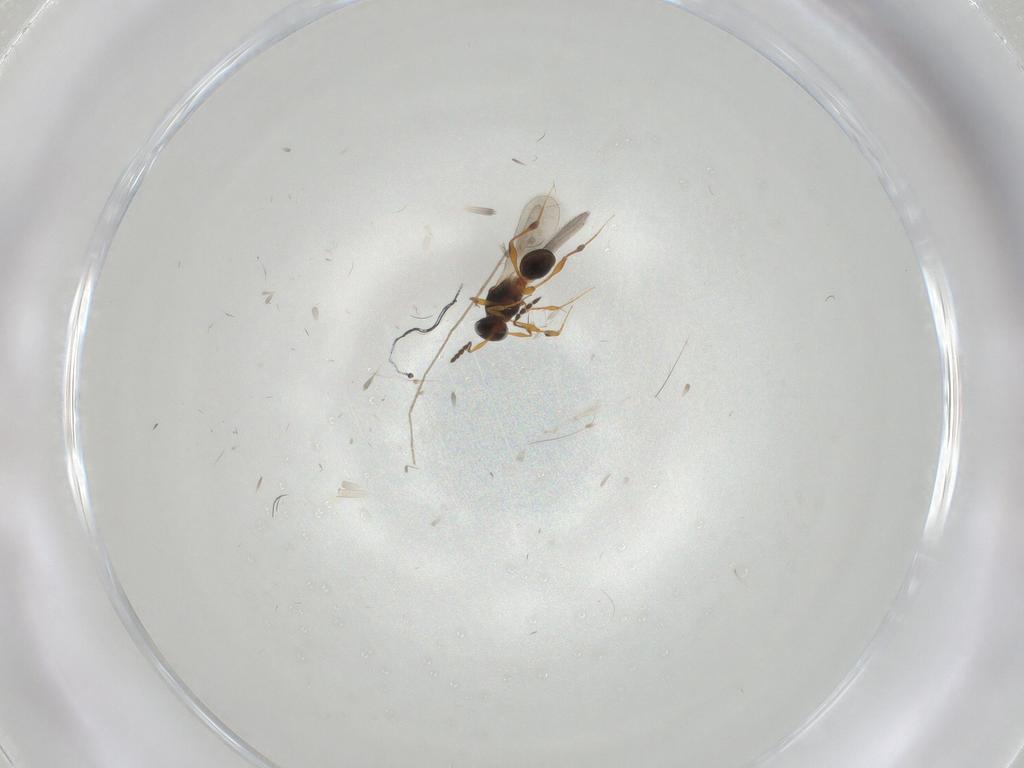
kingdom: Animalia
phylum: Arthropoda
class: Insecta
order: Hymenoptera
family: Platygastridae
